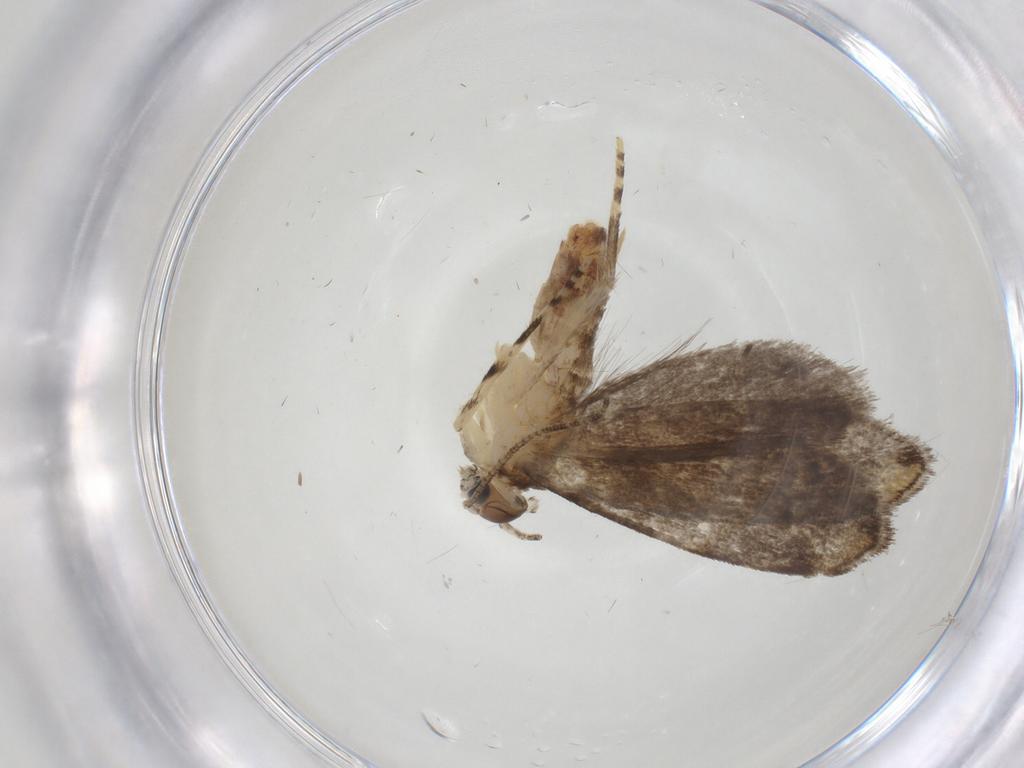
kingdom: Animalia
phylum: Arthropoda
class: Insecta
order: Lepidoptera
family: Tineidae
